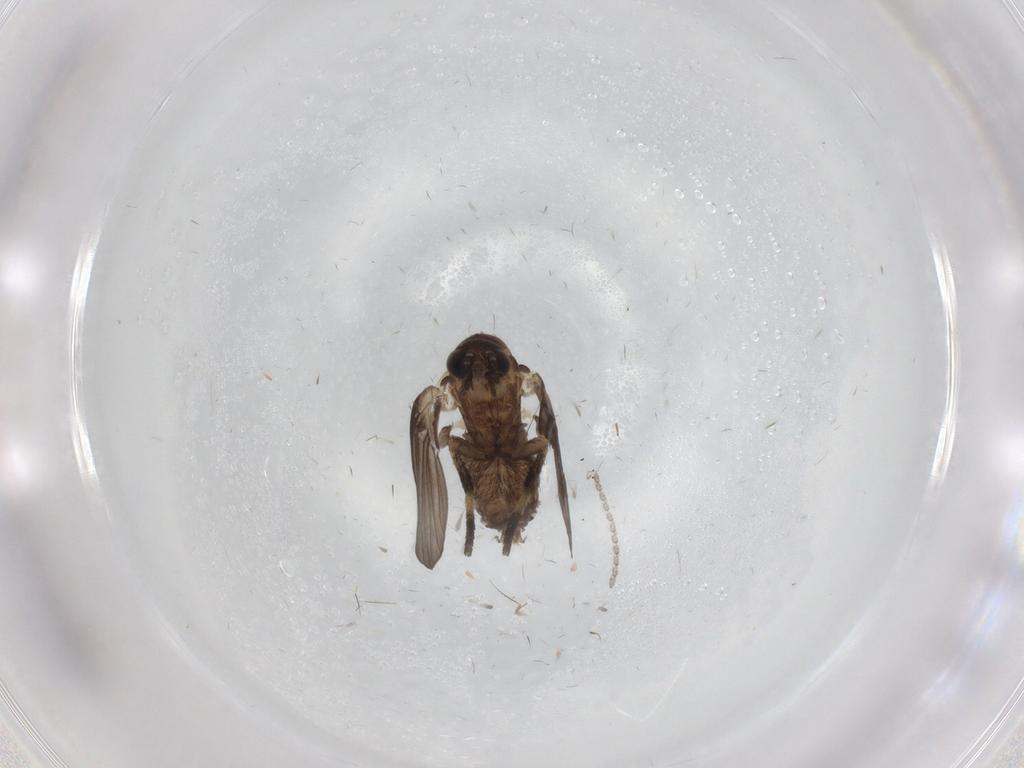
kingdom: Animalia
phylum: Arthropoda
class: Insecta
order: Diptera
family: Cecidomyiidae
